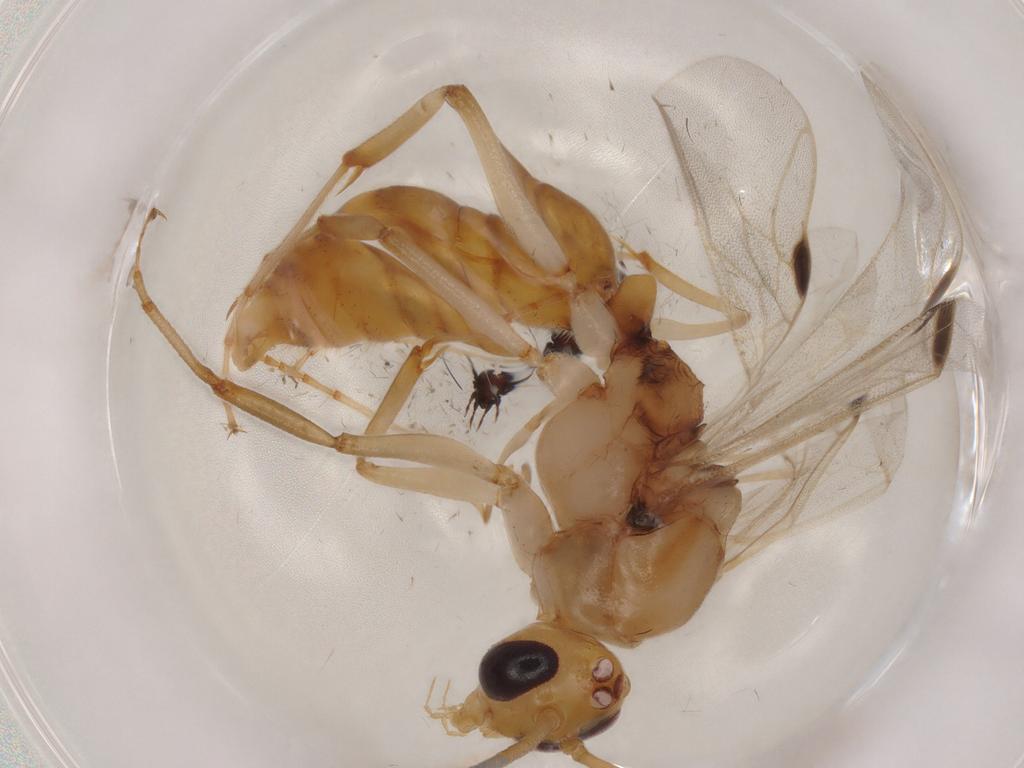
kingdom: Animalia
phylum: Arthropoda
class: Insecta
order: Hymenoptera
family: Formicidae
